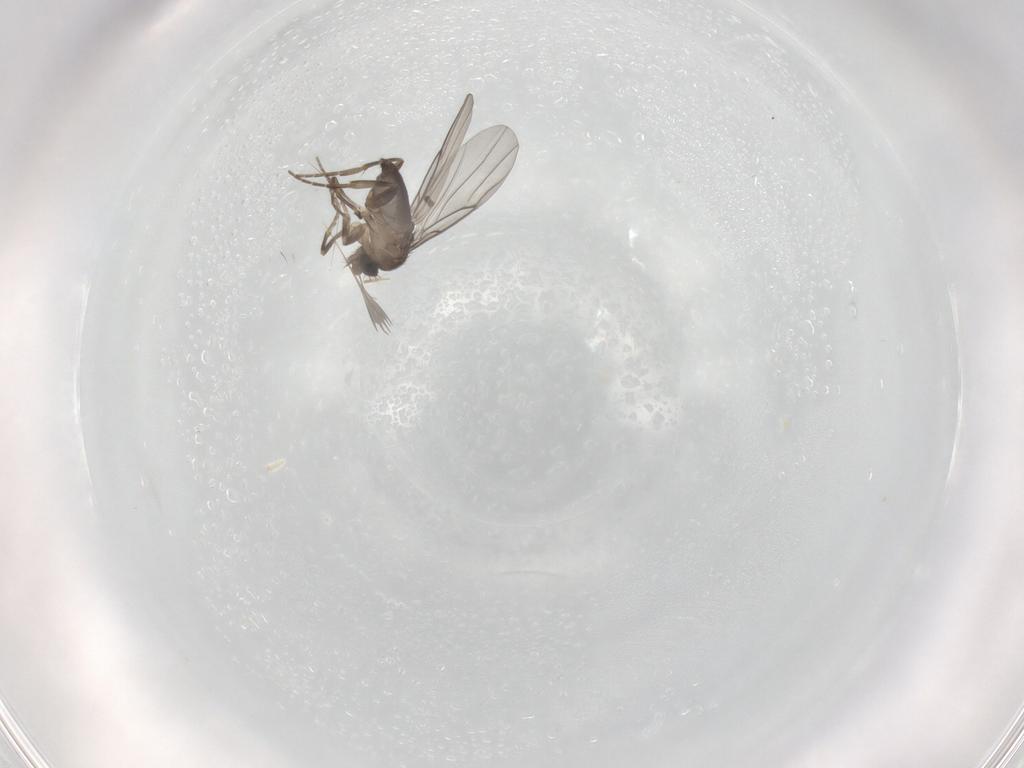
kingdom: Animalia
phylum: Arthropoda
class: Insecta
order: Diptera
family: Phoridae
